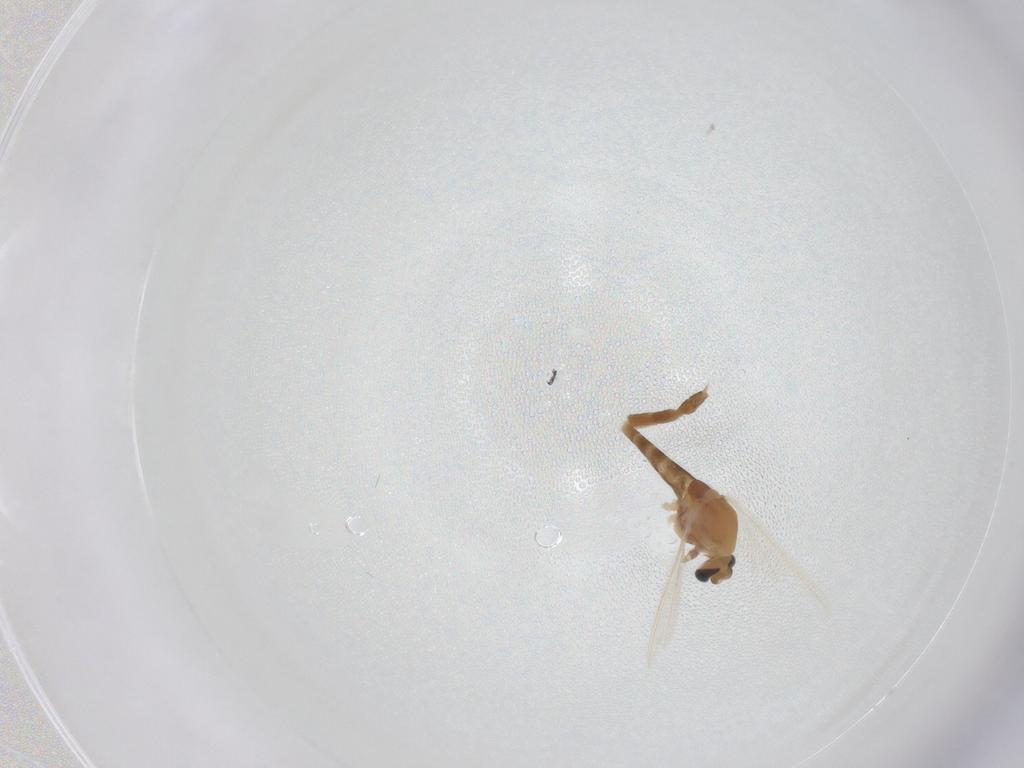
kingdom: Animalia
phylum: Arthropoda
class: Insecta
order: Diptera
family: Chironomidae
